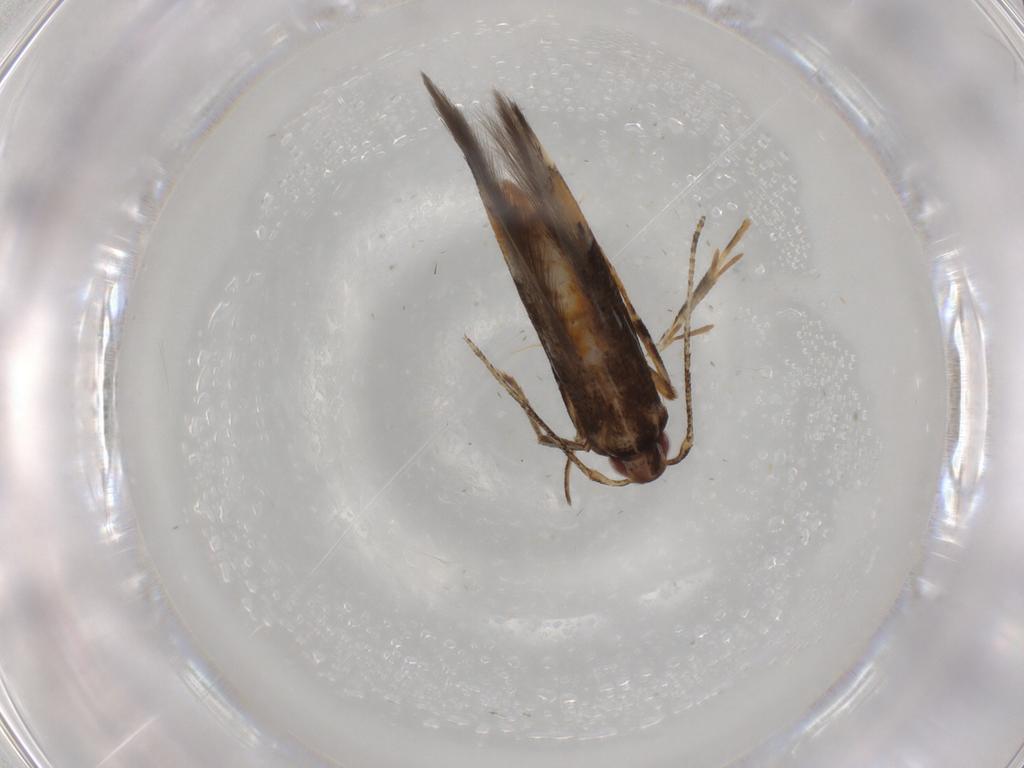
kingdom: Animalia
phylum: Arthropoda
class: Insecta
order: Lepidoptera
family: Cosmopterigidae
